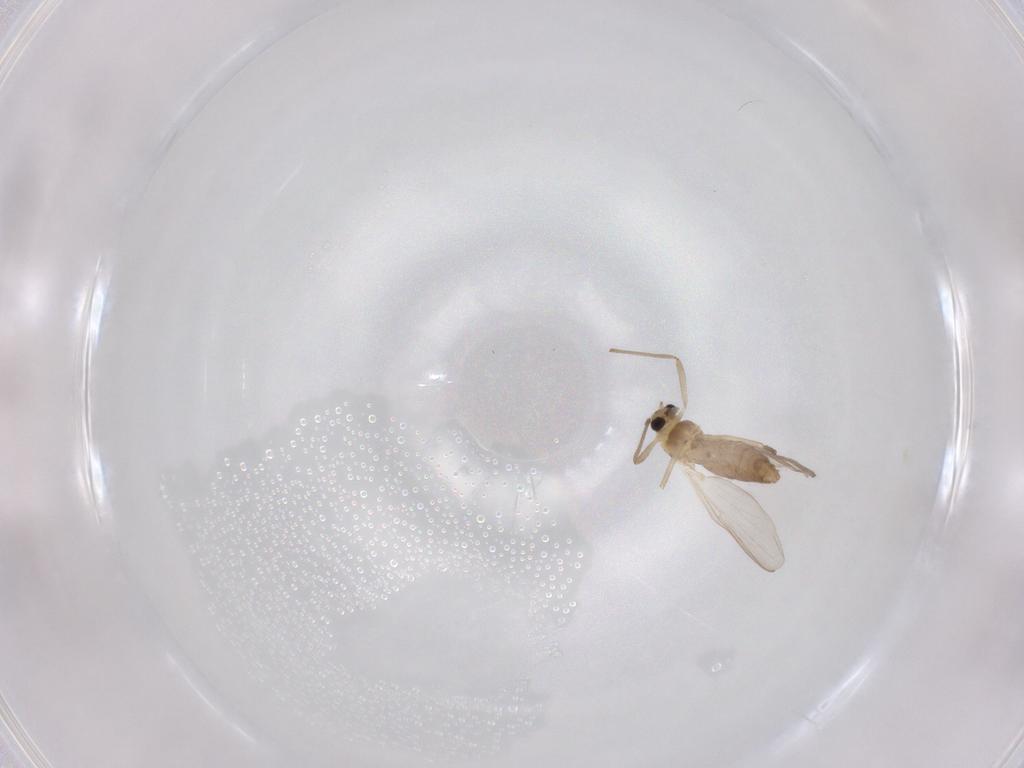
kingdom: Animalia
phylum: Arthropoda
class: Insecta
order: Diptera
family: Chironomidae
